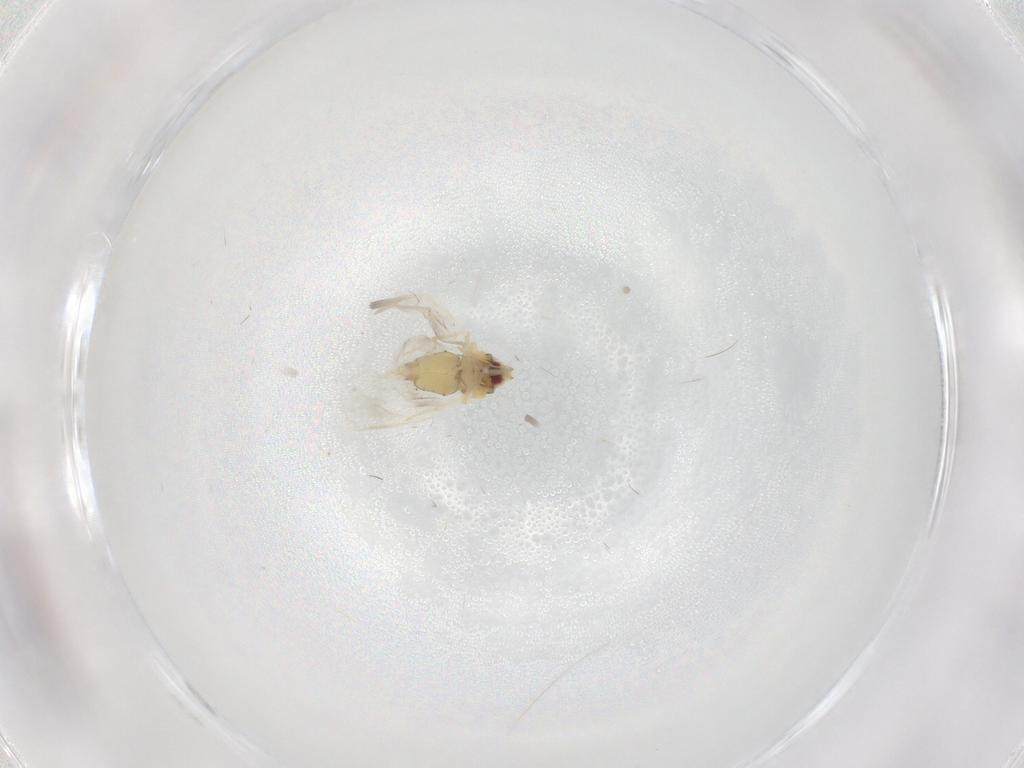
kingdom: Animalia
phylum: Arthropoda
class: Insecta
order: Hemiptera
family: Aleyrodidae
